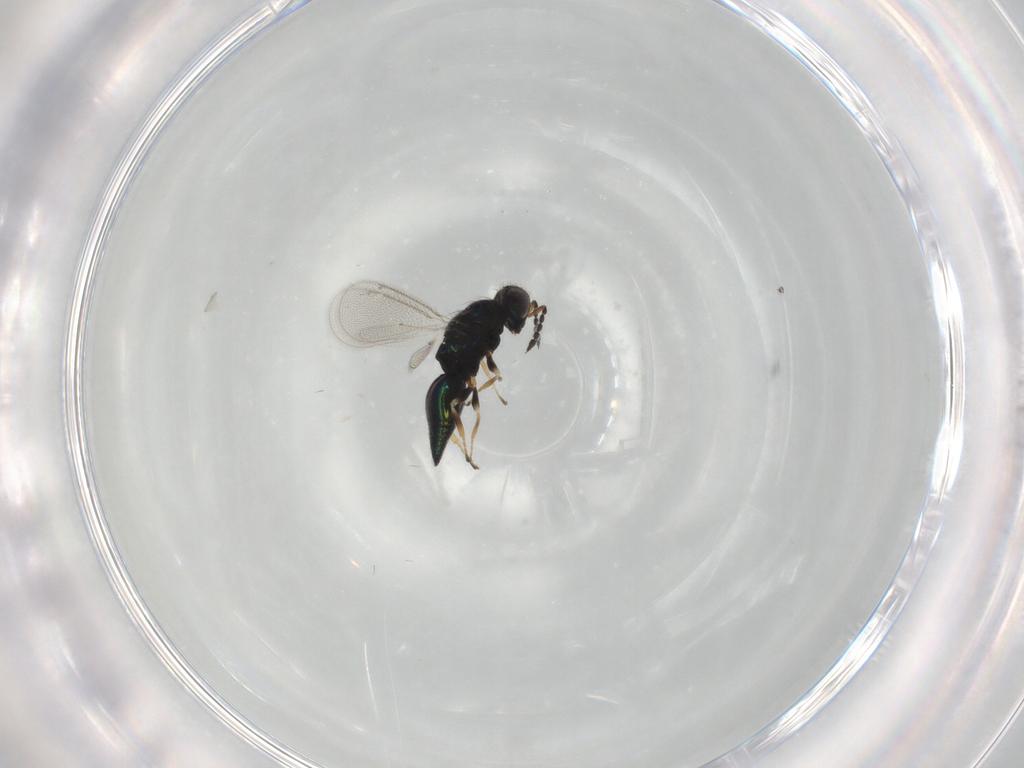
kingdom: Animalia
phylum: Arthropoda
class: Insecta
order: Hymenoptera
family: Eulophidae
